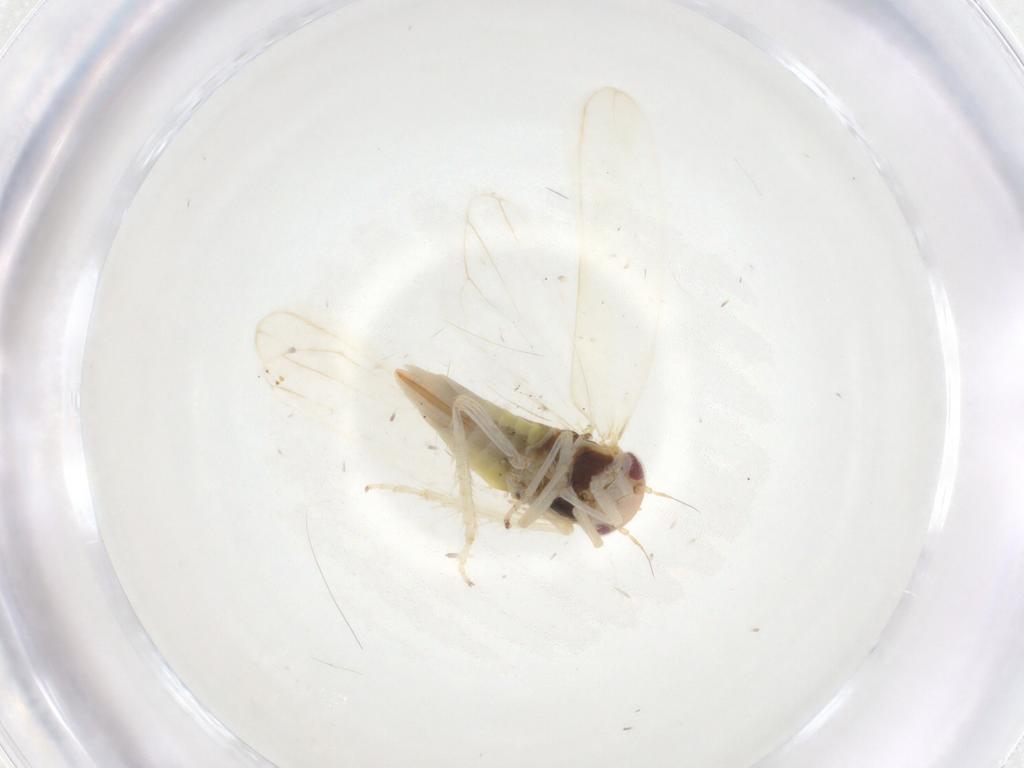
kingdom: Animalia
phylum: Arthropoda
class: Insecta
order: Hemiptera
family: Cicadellidae
